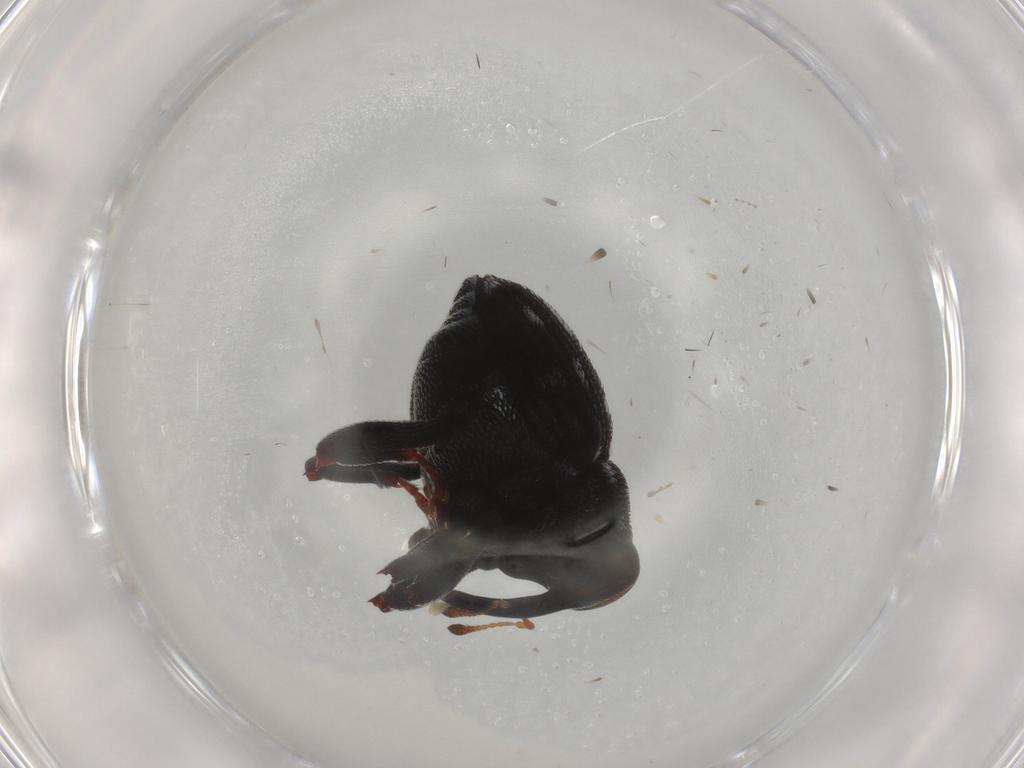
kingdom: Animalia
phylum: Arthropoda
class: Insecta
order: Coleoptera
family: Curculionidae
